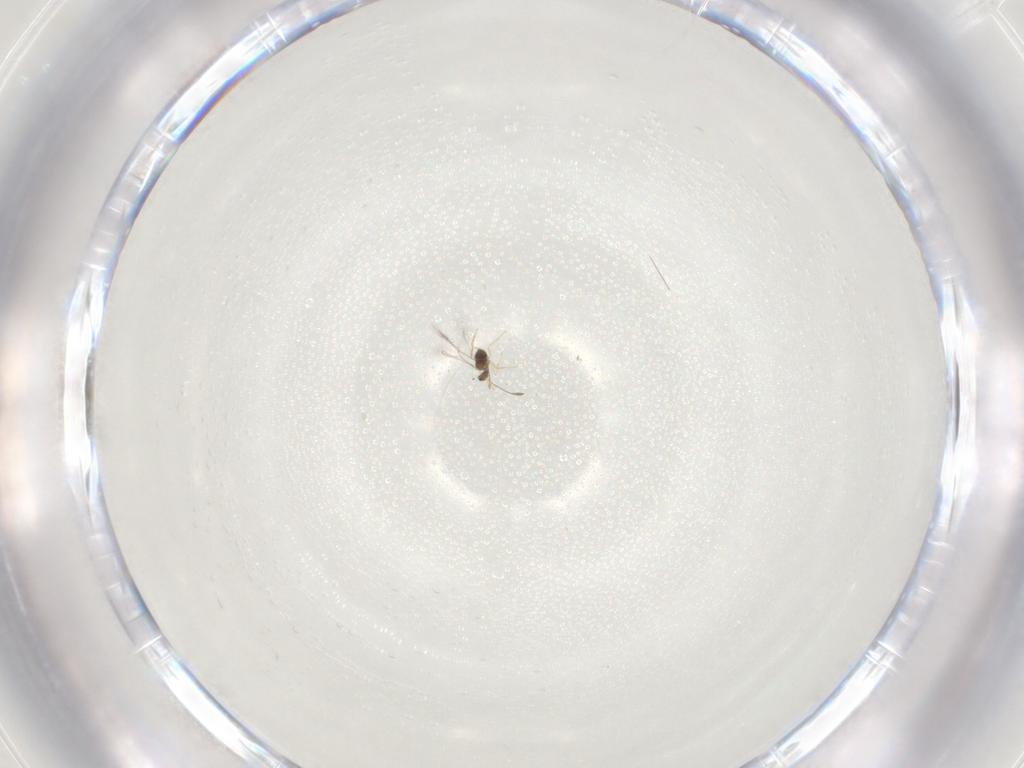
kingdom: Animalia
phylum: Arthropoda
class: Insecta
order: Hymenoptera
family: Mymaridae
